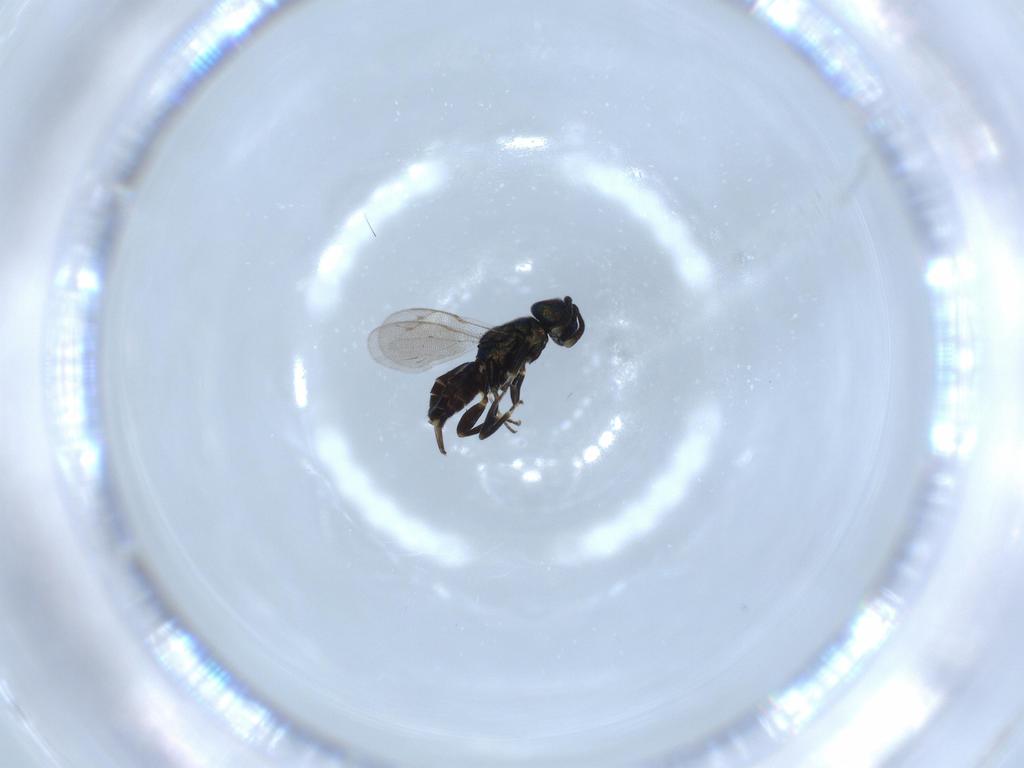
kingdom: Animalia
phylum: Arthropoda
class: Insecta
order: Hymenoptera
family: Eupelmidae
